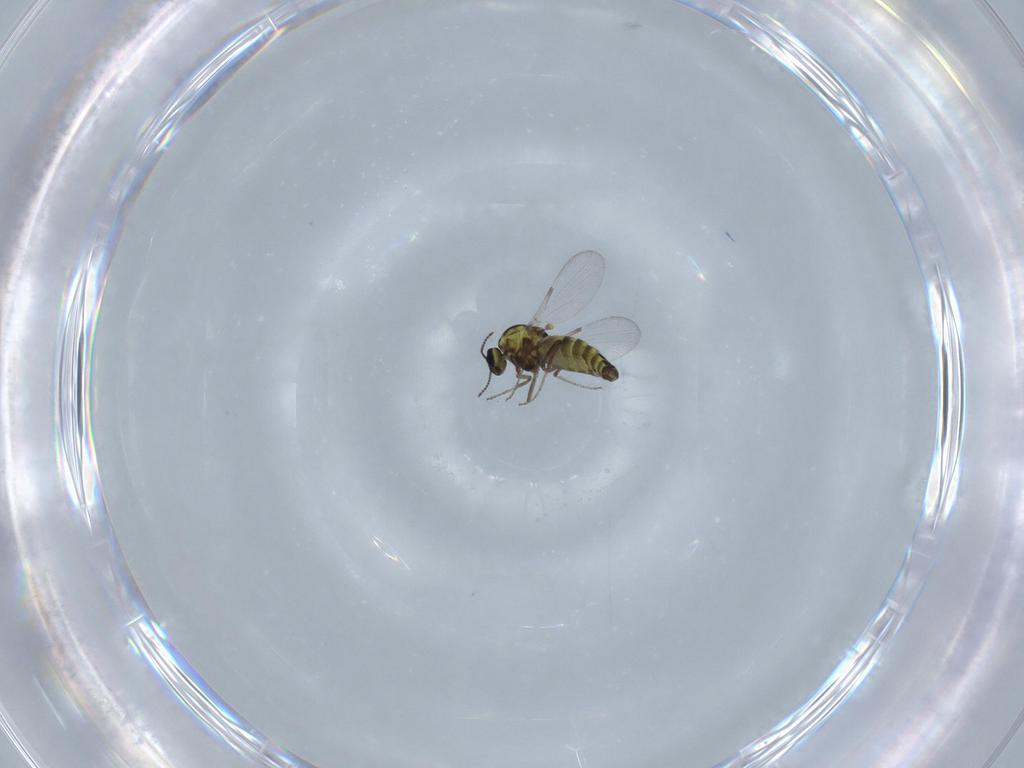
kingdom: Animalia
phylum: Arthropoda
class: Insecta
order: Diptera
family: Ceratopogonidae
